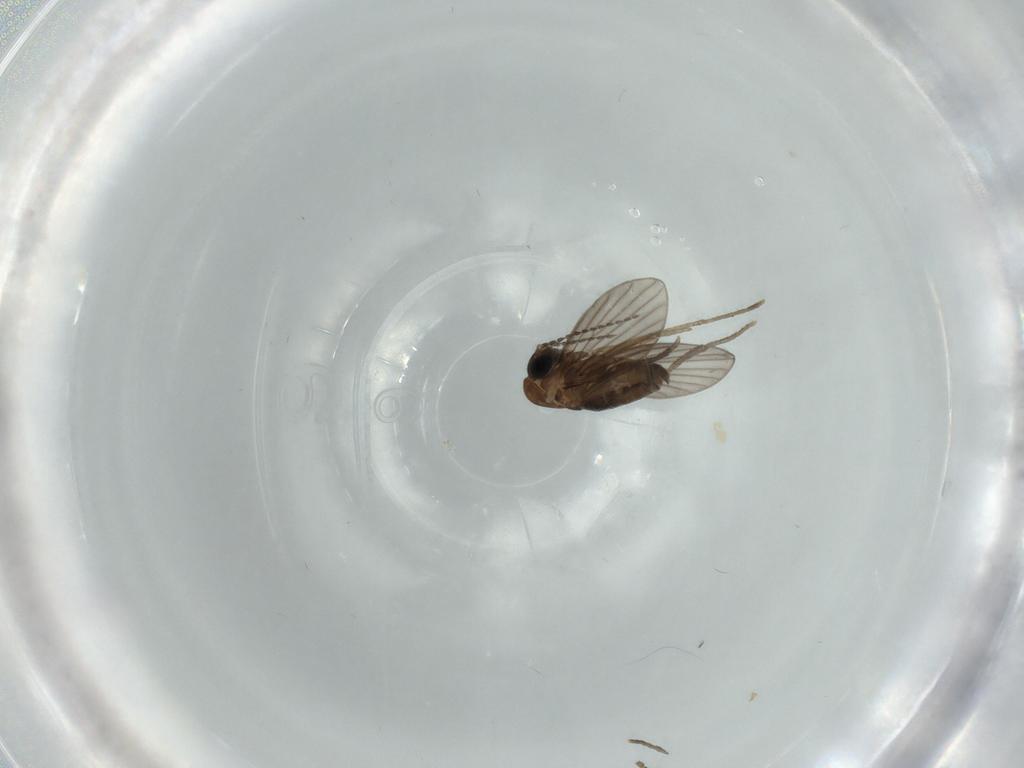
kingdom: Animalia
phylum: Arthropoda
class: Insecta
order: Diptera
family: Psychodidae
